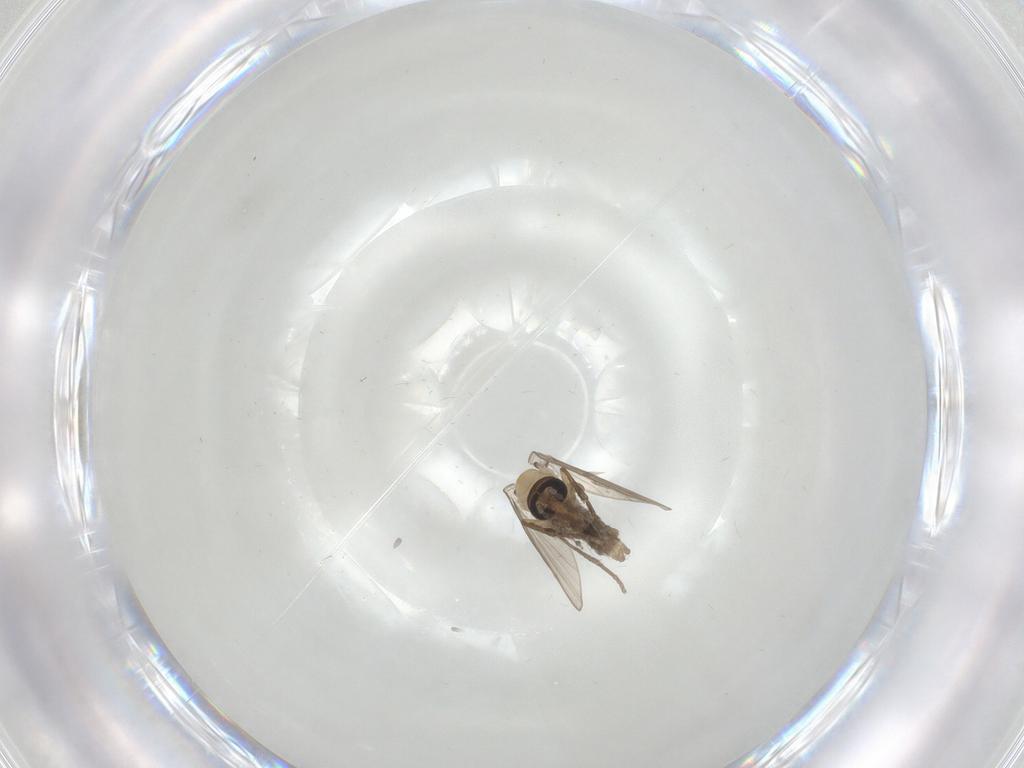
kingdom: Animalia
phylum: Arthropoda
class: Insecta
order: Diptera
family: Psychodidae
